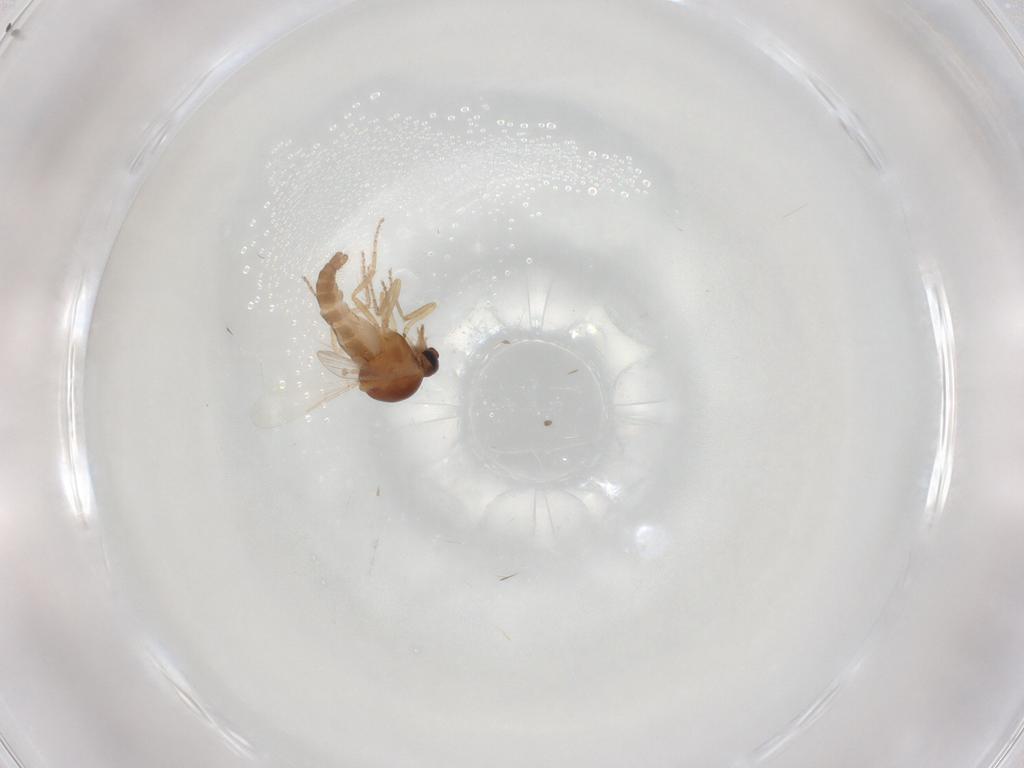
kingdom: Animalia
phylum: Arthropoda
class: Insecta
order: Diptera
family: Ceratopogonidae
